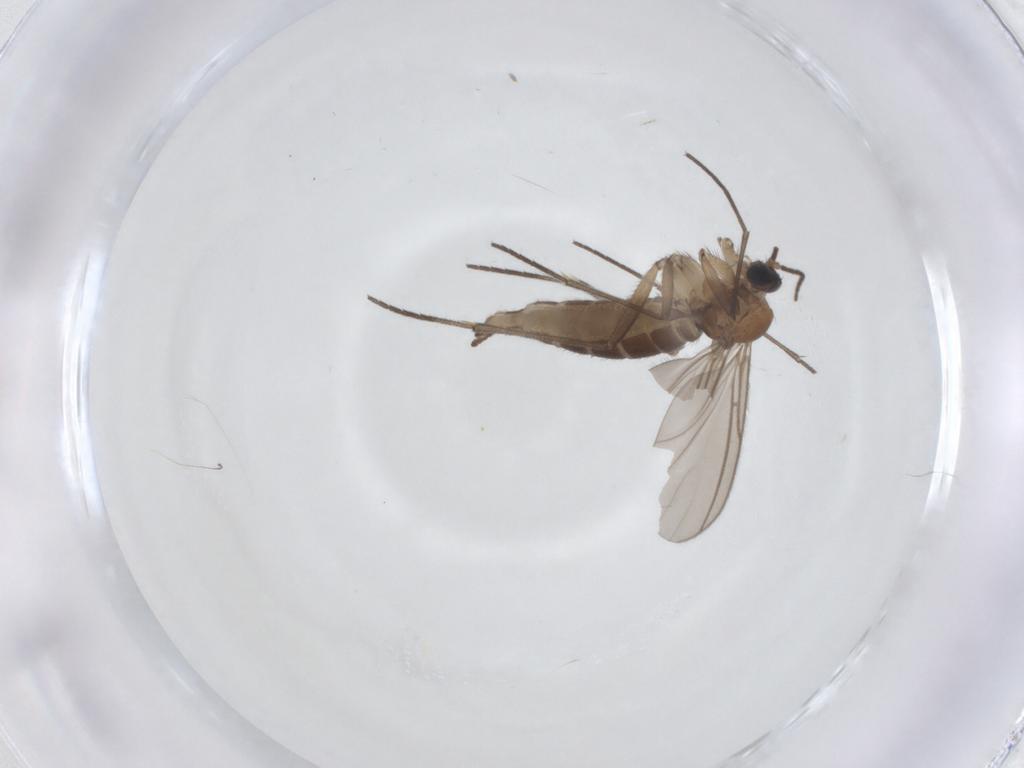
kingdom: Animalia
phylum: Arthropoda
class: Insecta
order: Diptera
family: Sciaridae
